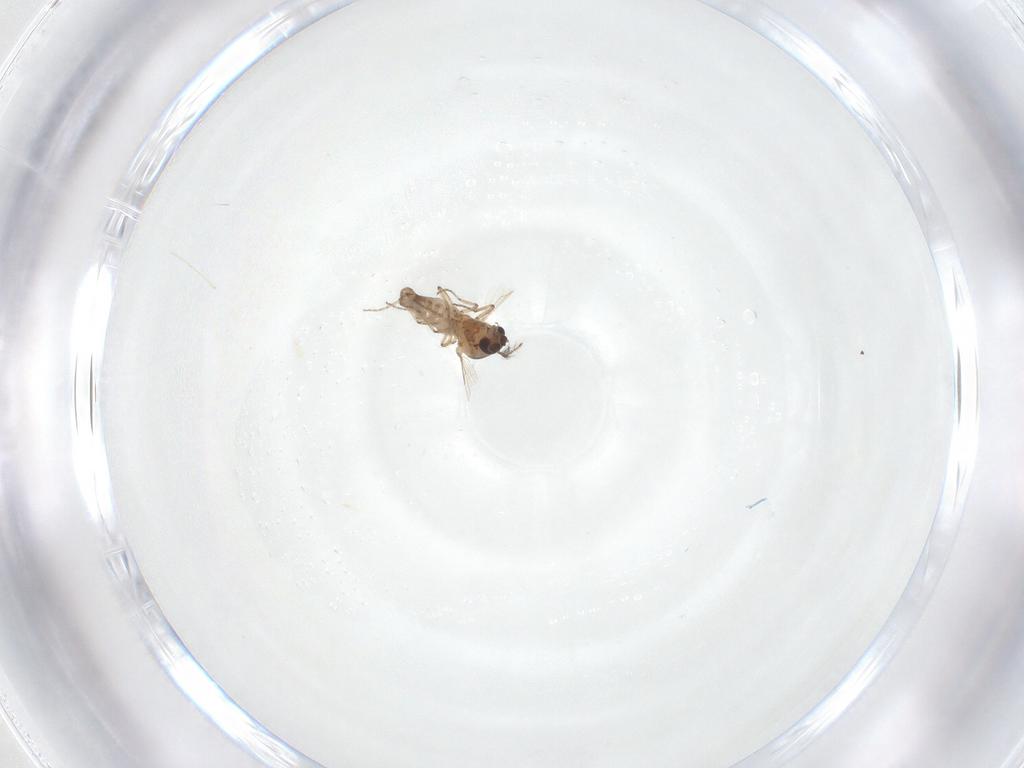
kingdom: Animalia
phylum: Arthropoda
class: Insecta
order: Diptera
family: Ceratopogonidae
